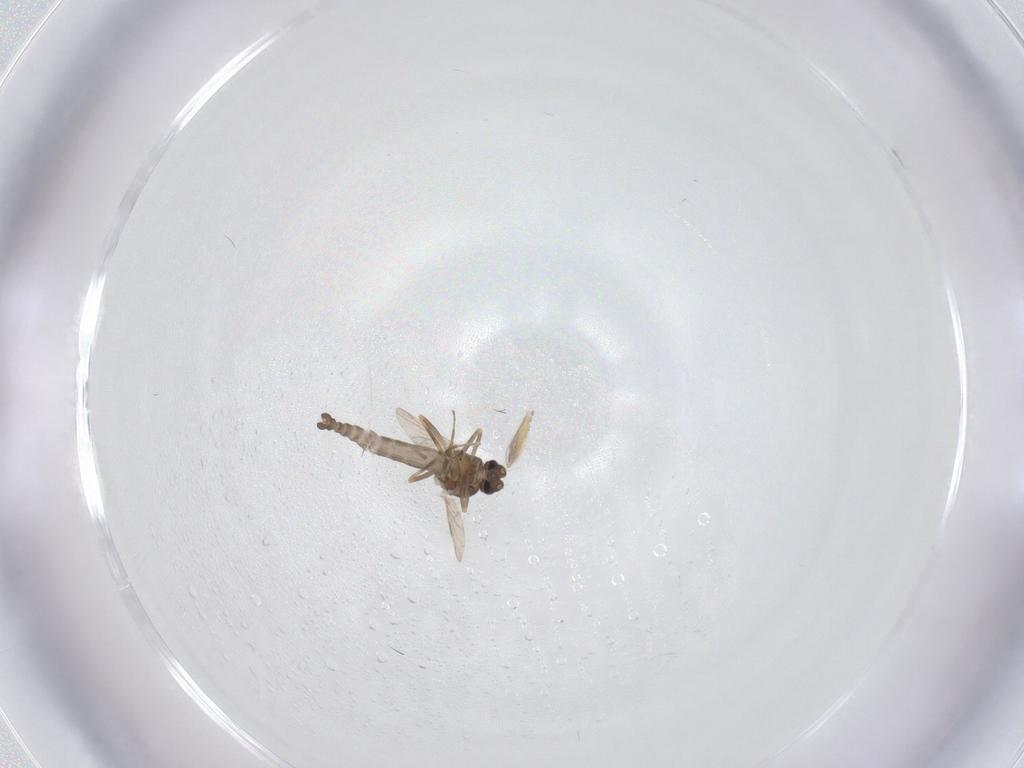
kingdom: Animalia
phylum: Arthropoda
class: Insecta
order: Diptera
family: Ceratopogonidae
